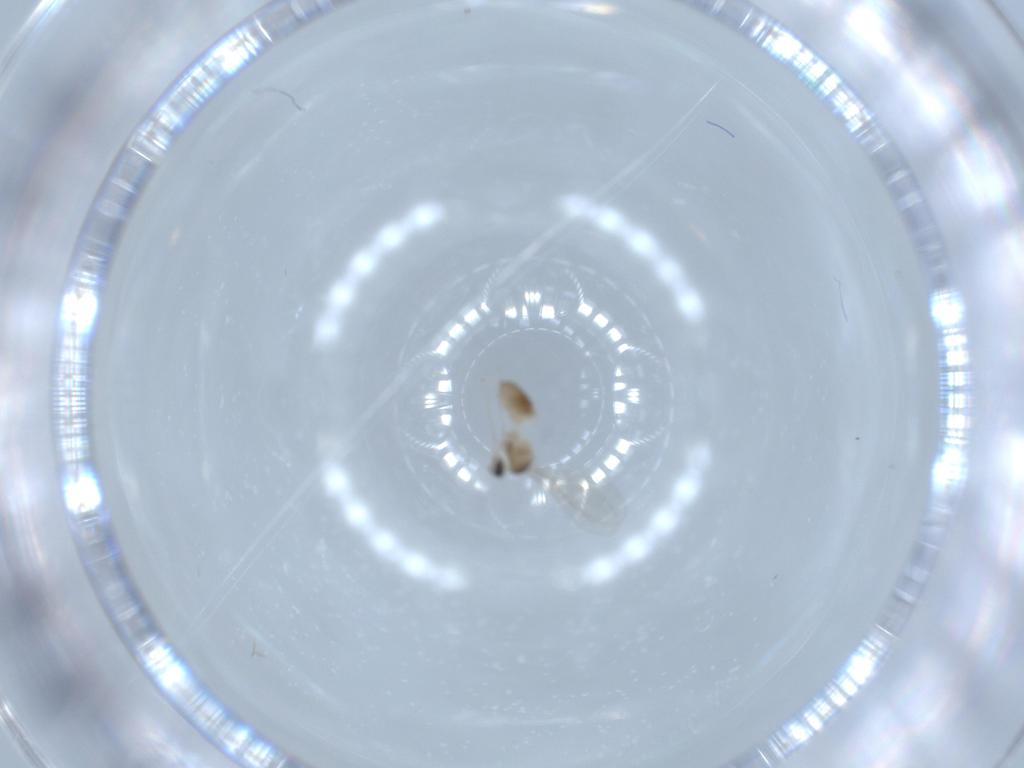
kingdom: Animalia
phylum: Arthropoda
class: Insecta
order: Diptera
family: Cecidomyiidae
